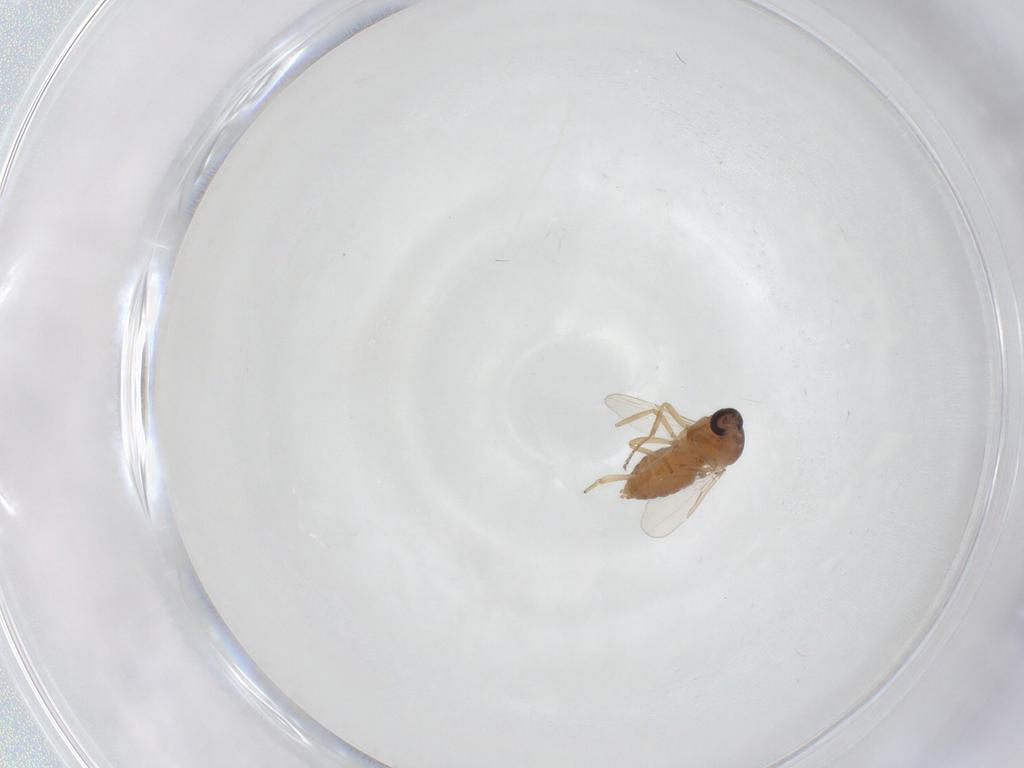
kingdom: Animalia
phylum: Arthropoda
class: Insecta
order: Diptera
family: Ceratopogonidae
